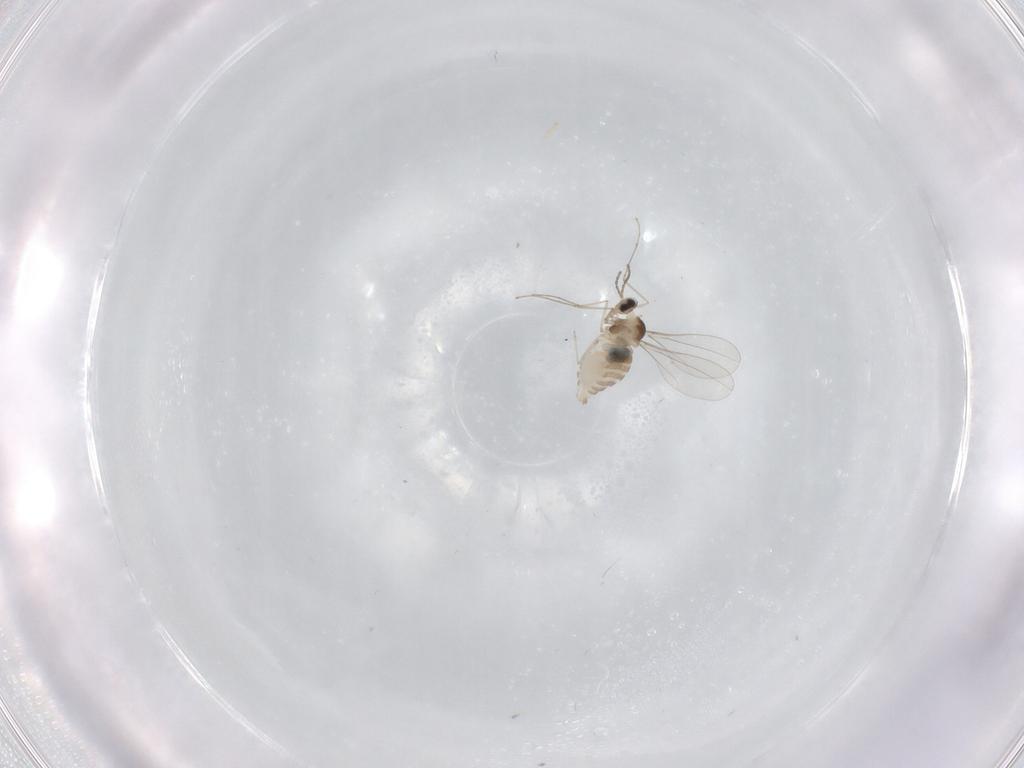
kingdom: Animalia
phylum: Arthropoda
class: Insecta
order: Diptera
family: Cecidomyiidae
